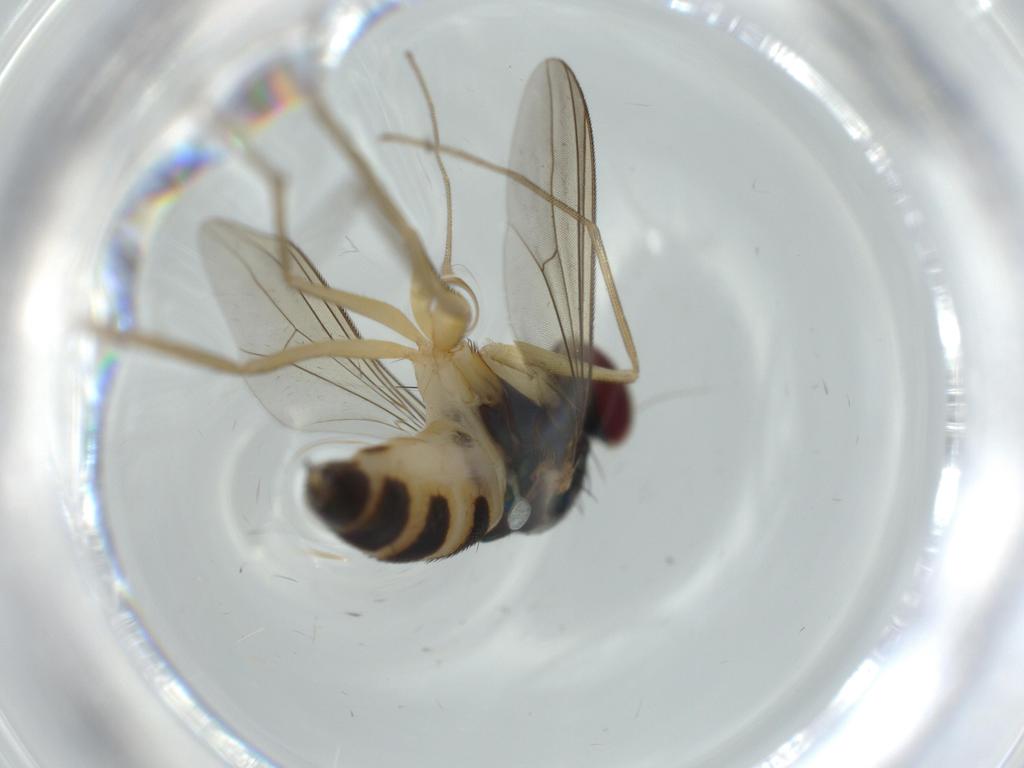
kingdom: Animalia
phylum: Arthropoda
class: Insecta
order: Diptera
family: Dolichopodidae
